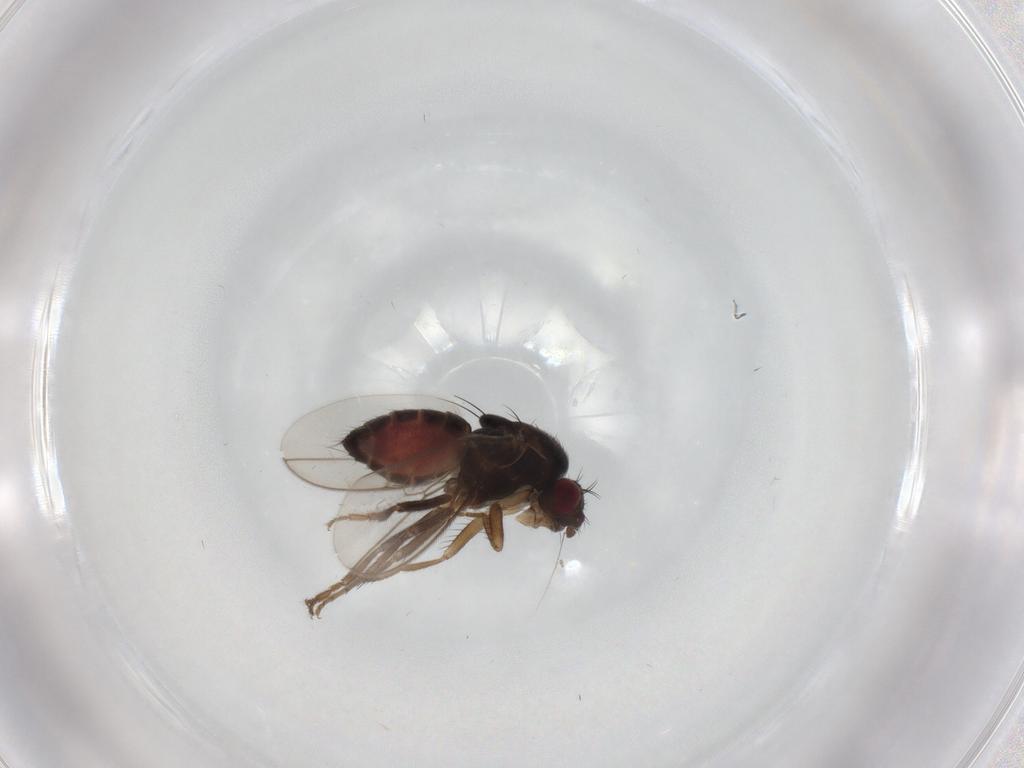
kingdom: Animalia
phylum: Arthropoda
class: Insecta
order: Diptera
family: Sphaeroceridae
